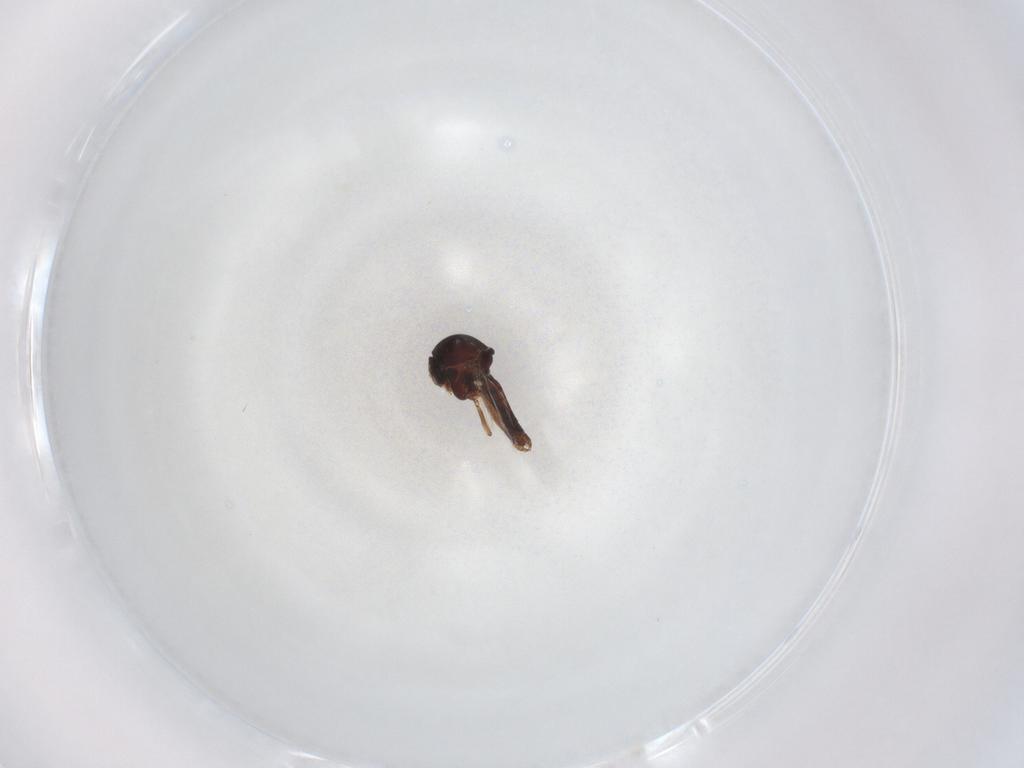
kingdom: Animalia
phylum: Arthropoda
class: Insecta
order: Diptera
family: Ceratopogonidae
